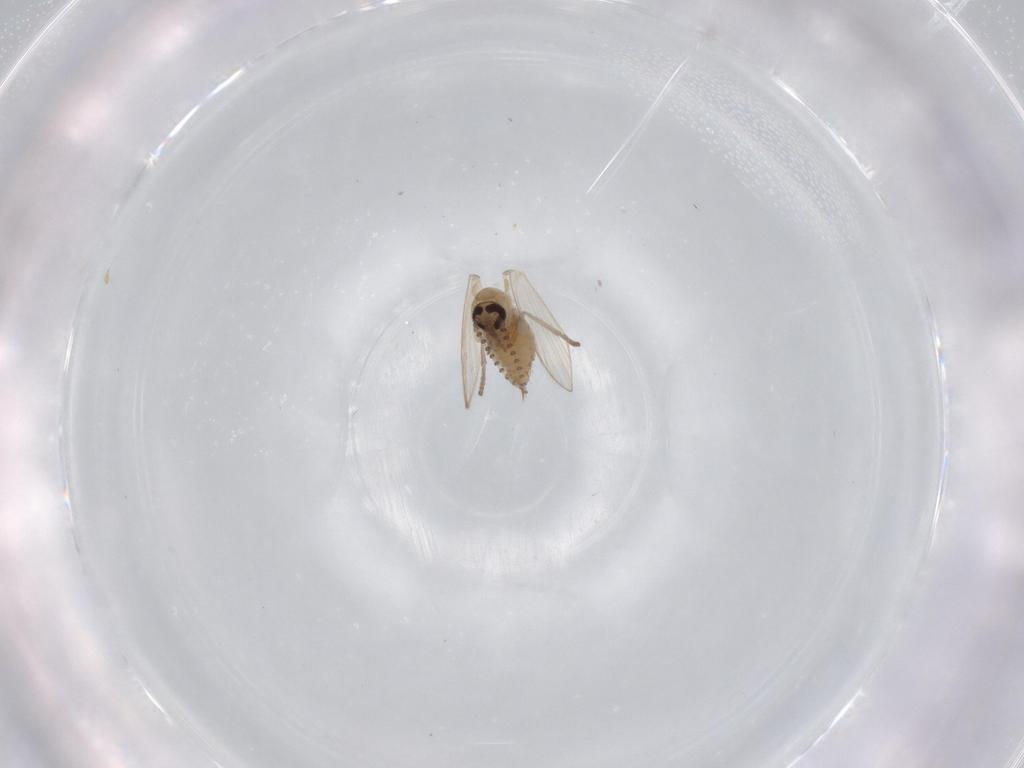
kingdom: Animalia
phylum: Arthropoda
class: Insecta
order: Diptera
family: Psychodidae
